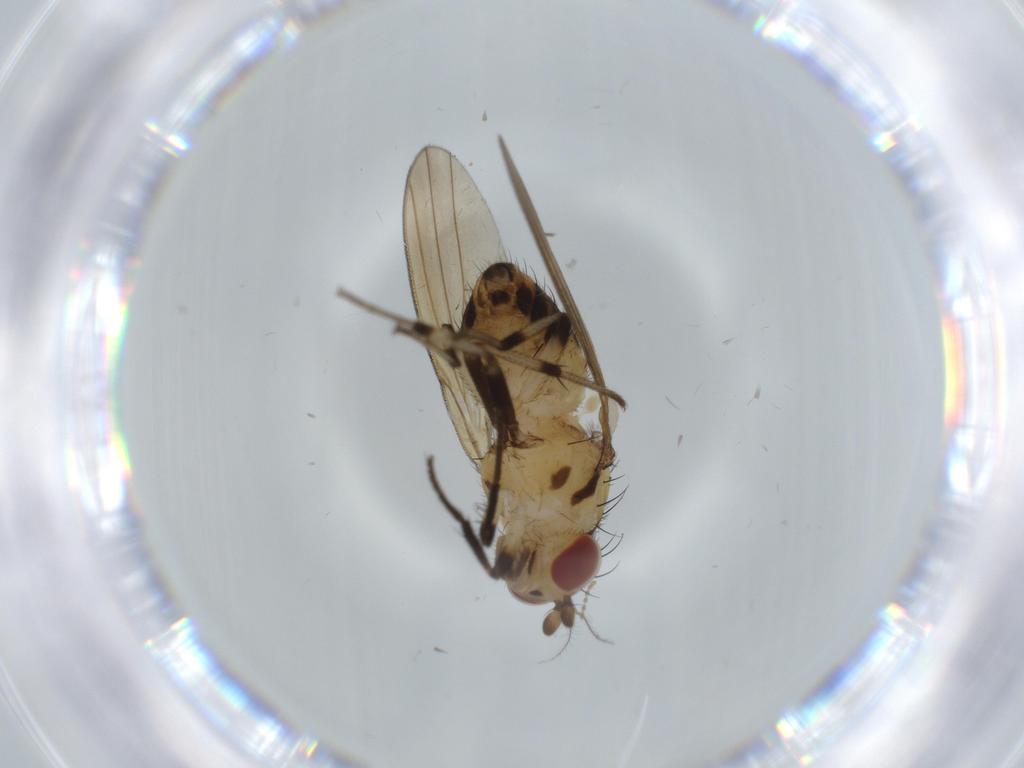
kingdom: Animalia
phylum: Arthropoda
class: Insecta
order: Diptera
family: Lauxaniidae
